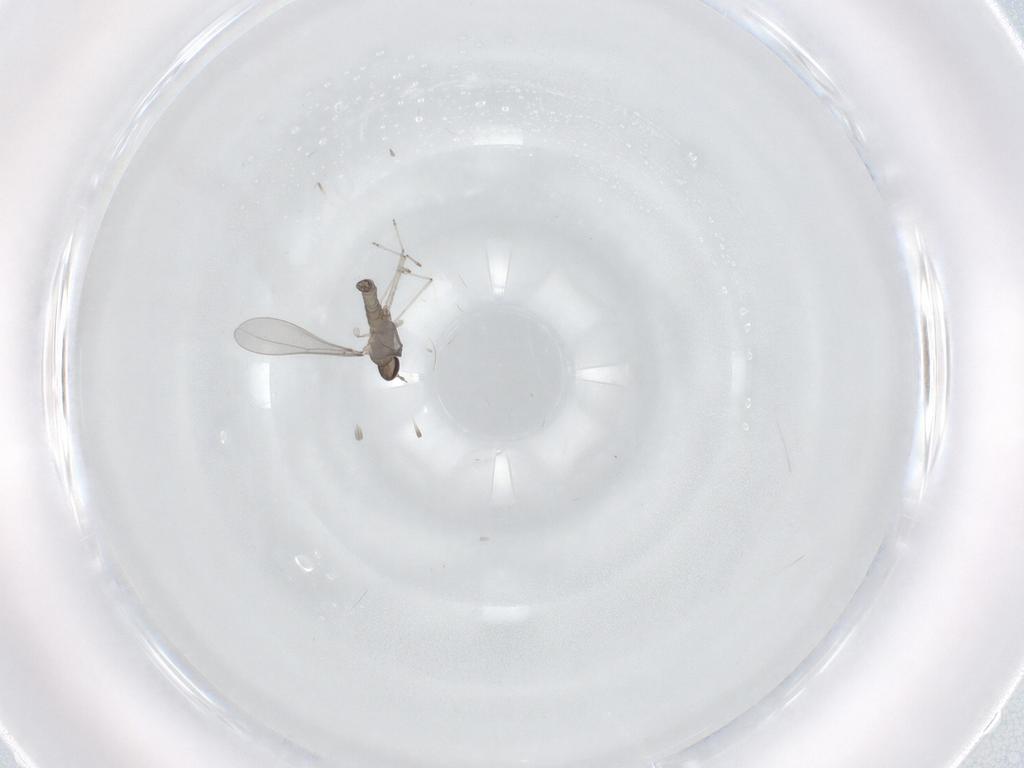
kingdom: Animalia
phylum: Arthropoda
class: Insecta
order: Diptera
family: Cecidomyiidae
